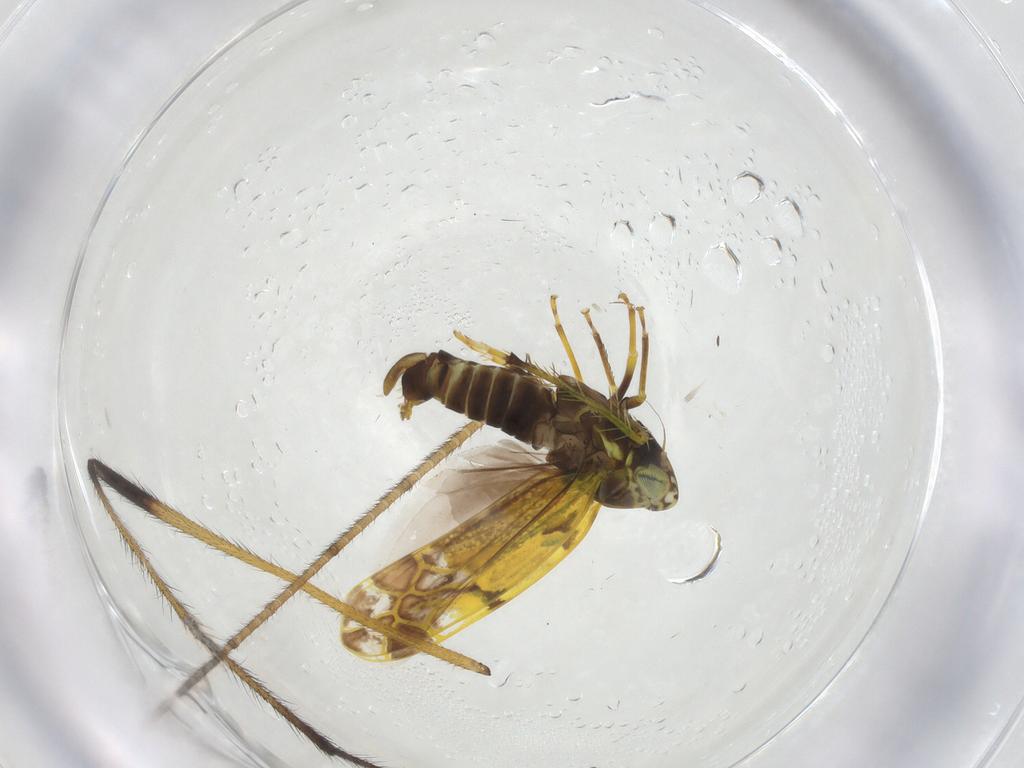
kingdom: Animalia
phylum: Arthropoda
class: Insecta
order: Hemiptera
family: Cicadellidae
